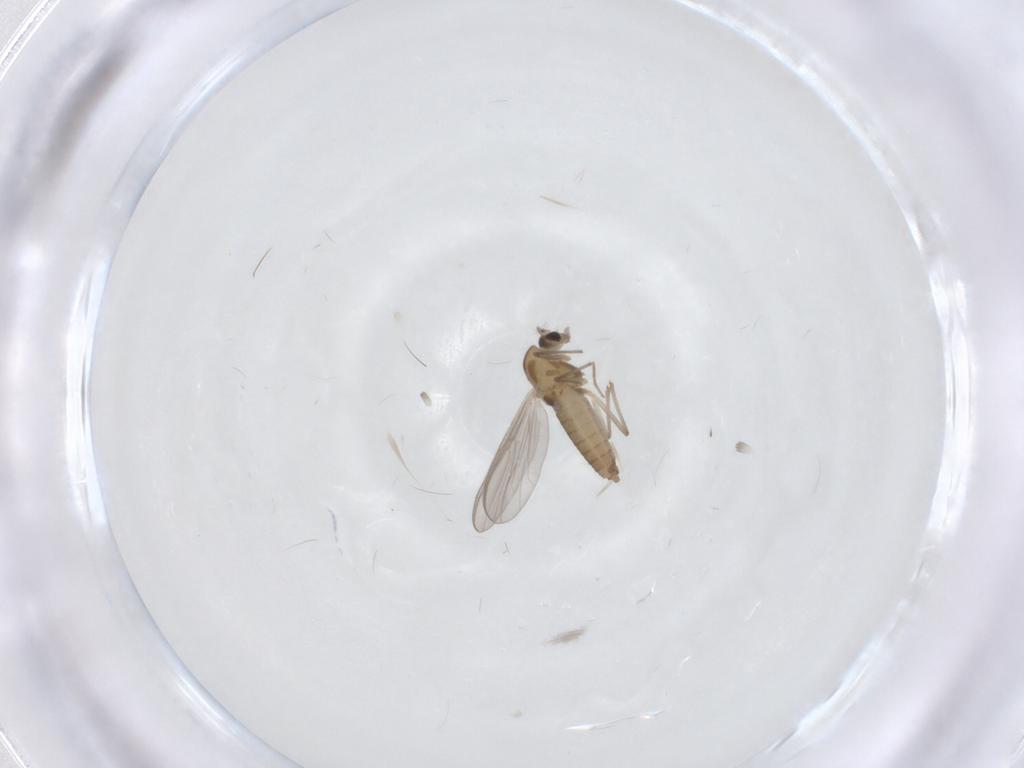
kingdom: Animalia
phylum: Arthropoda
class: Insecta
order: Diptera
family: Chironomidae
